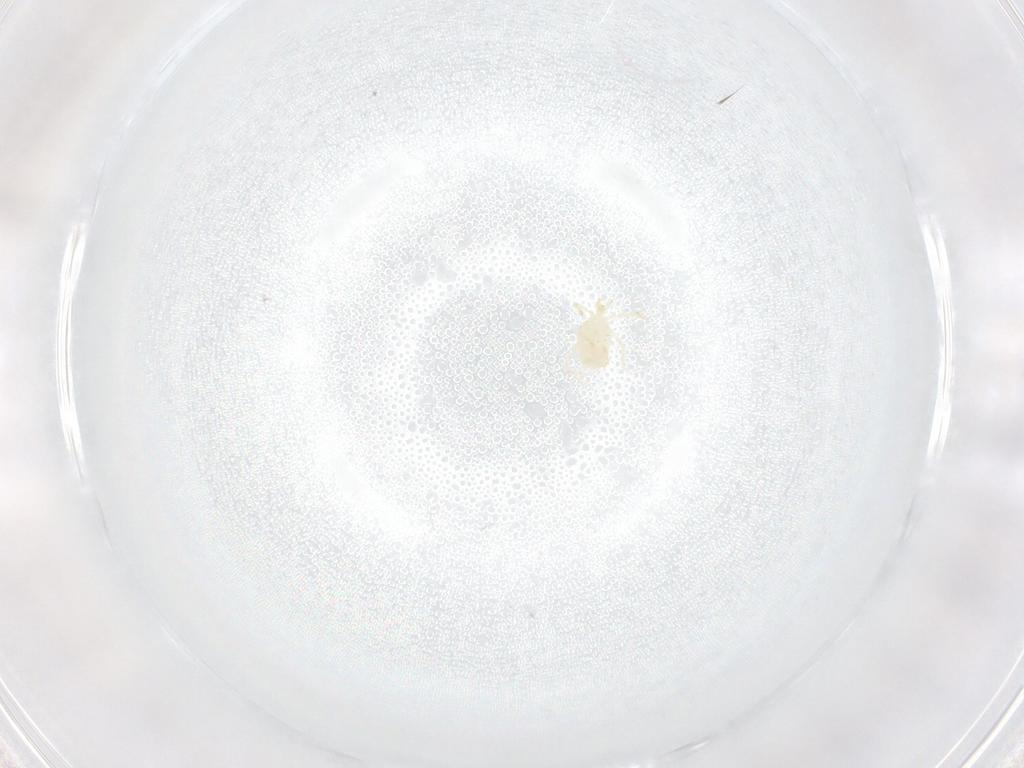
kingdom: Animalia
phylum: Arthropoda
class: Arachnida
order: Trombidiformes
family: Erythraeidae
